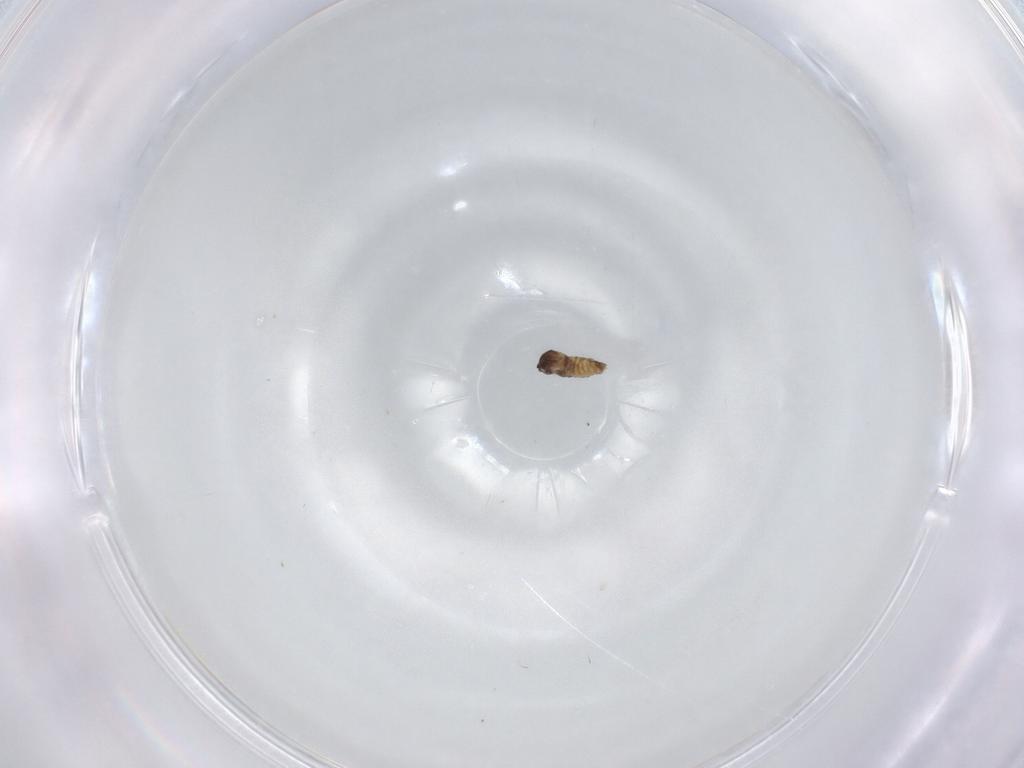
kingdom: Animalia
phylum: Arthropoda
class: Insecta
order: Diptera
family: Cecidomyiidae
